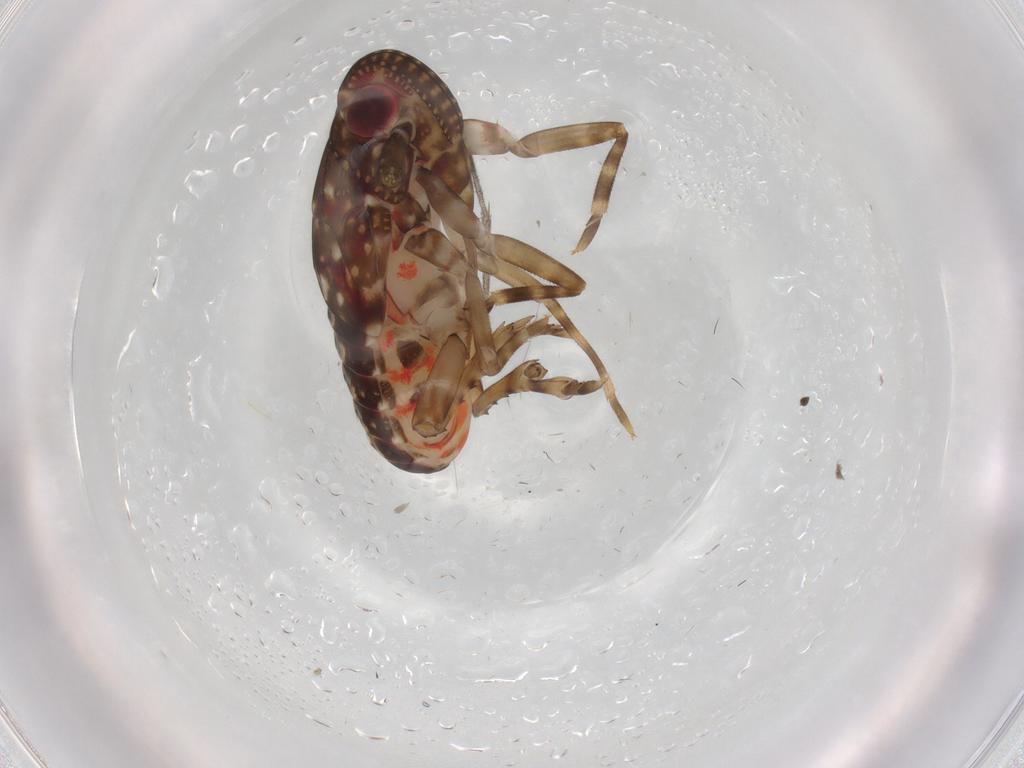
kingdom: Animalia
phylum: Arthropoda
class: Insecta
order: Hemiptera
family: Delphacidae
